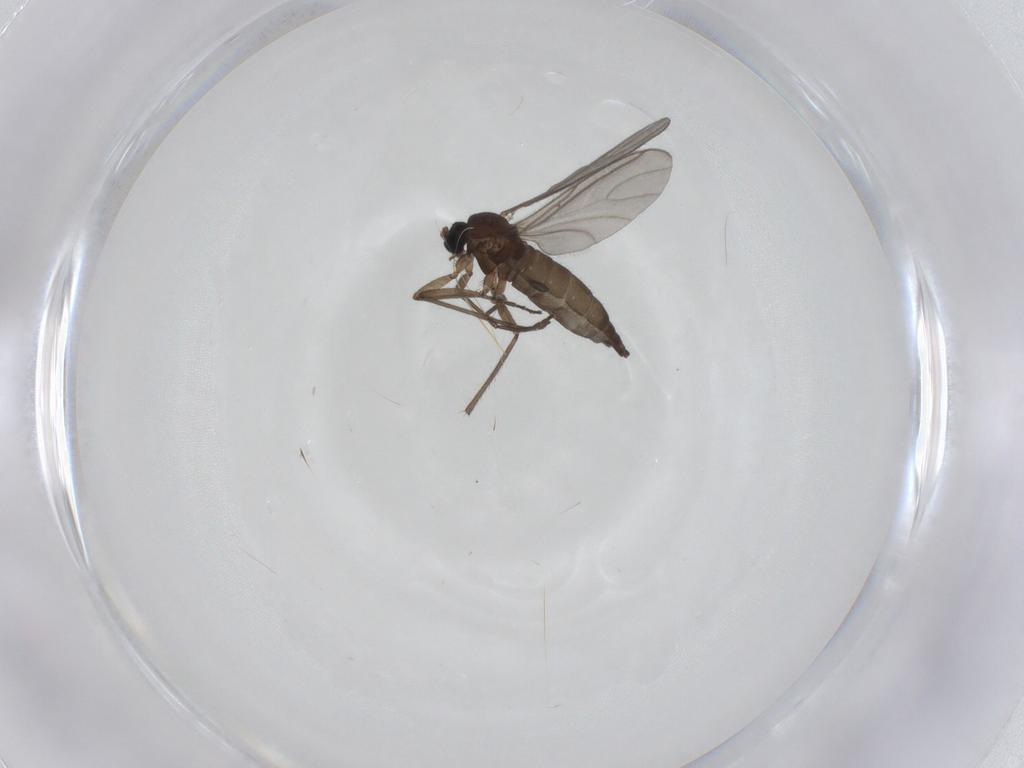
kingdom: Animalia
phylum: Arthropoda
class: Insecta
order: Diptera
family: Sciaridae
